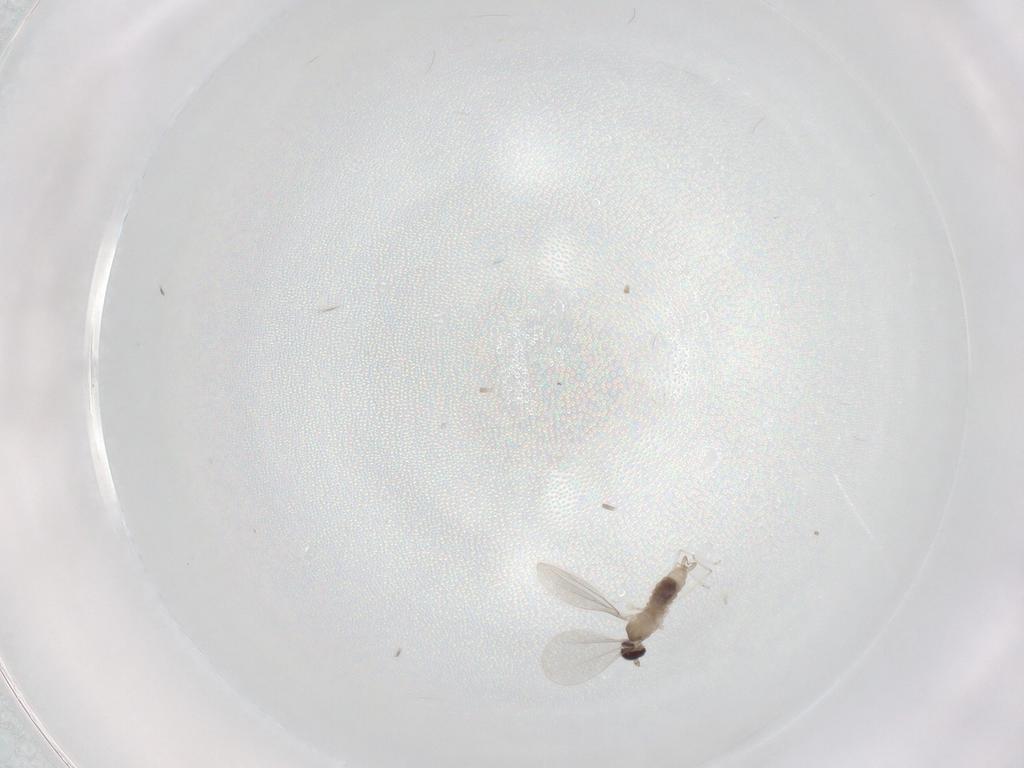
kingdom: Animalia
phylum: Arthropoda
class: Insecta
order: Diptera
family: Cecidomyiidae
